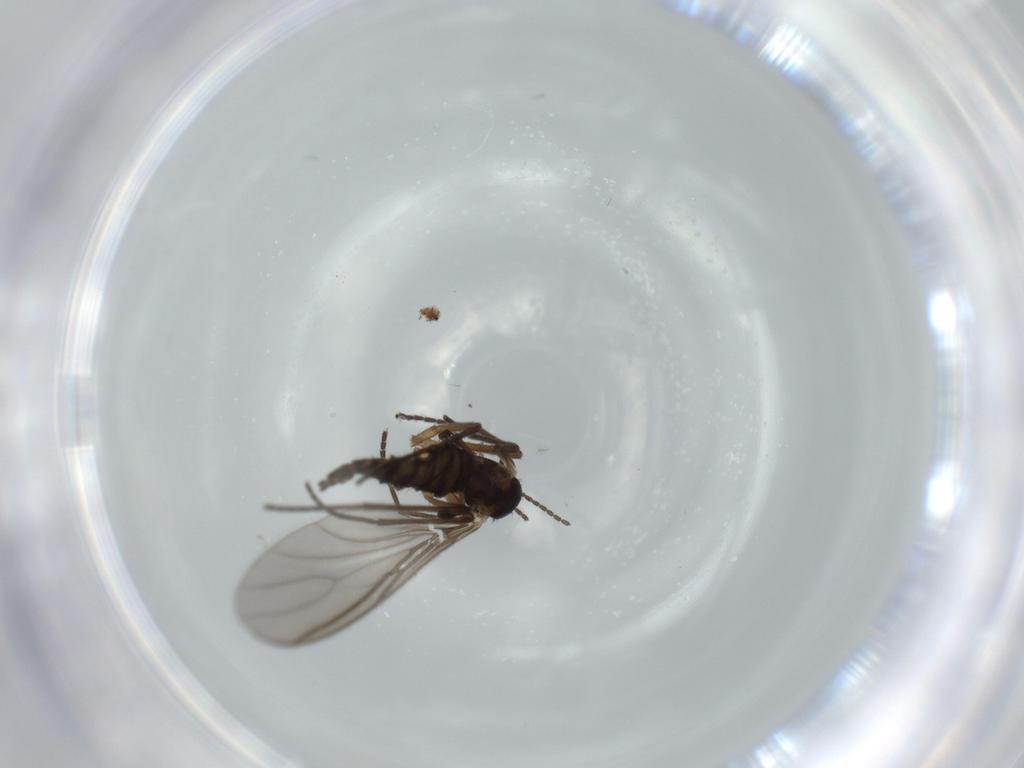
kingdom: Animalia
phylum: Arthropoda
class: Insecta
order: Diptera
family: Sciaridae
